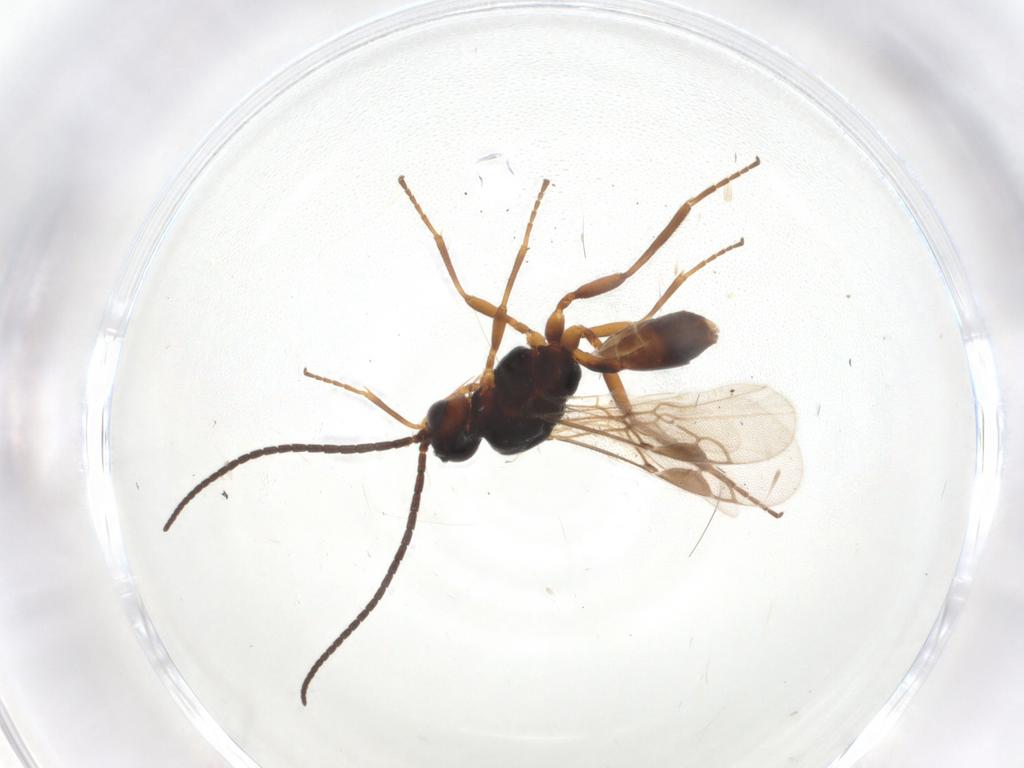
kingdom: Animalia
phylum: Arthropoda
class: Insecta
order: Hymenoptera
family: Braconidae
